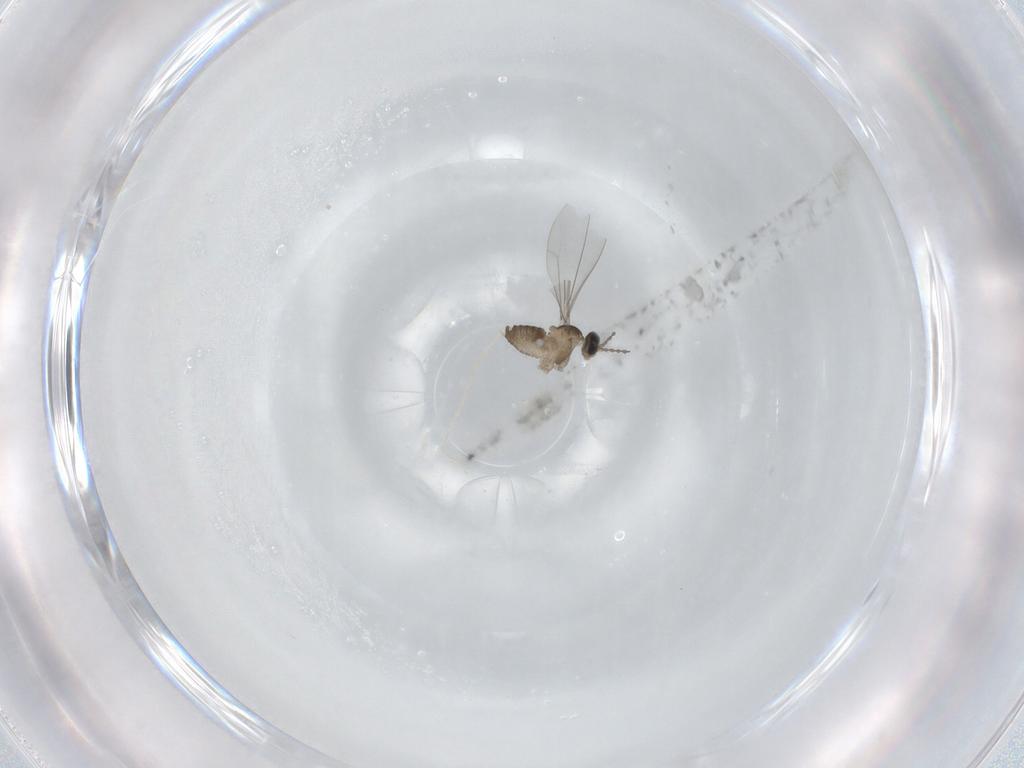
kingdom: Animalia
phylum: Arthropoda
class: Insecta
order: Diptera
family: Cecidomyiidae
